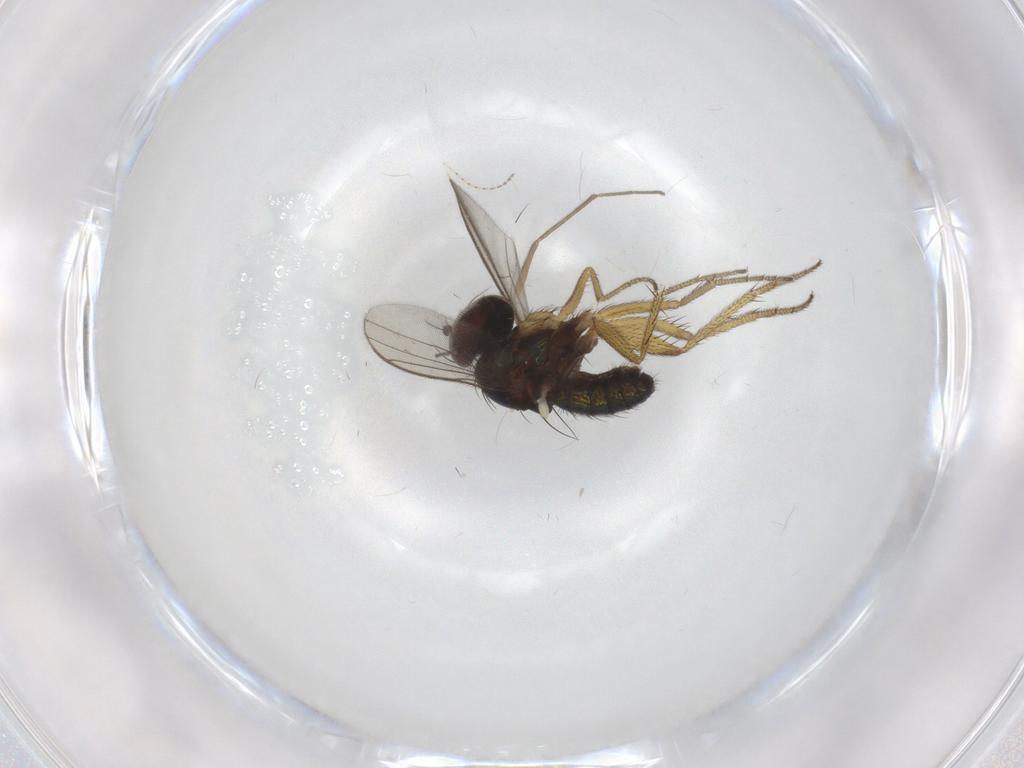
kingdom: Animalia
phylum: Arthropoda
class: Insecta
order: Diptera
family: Chironomidae
